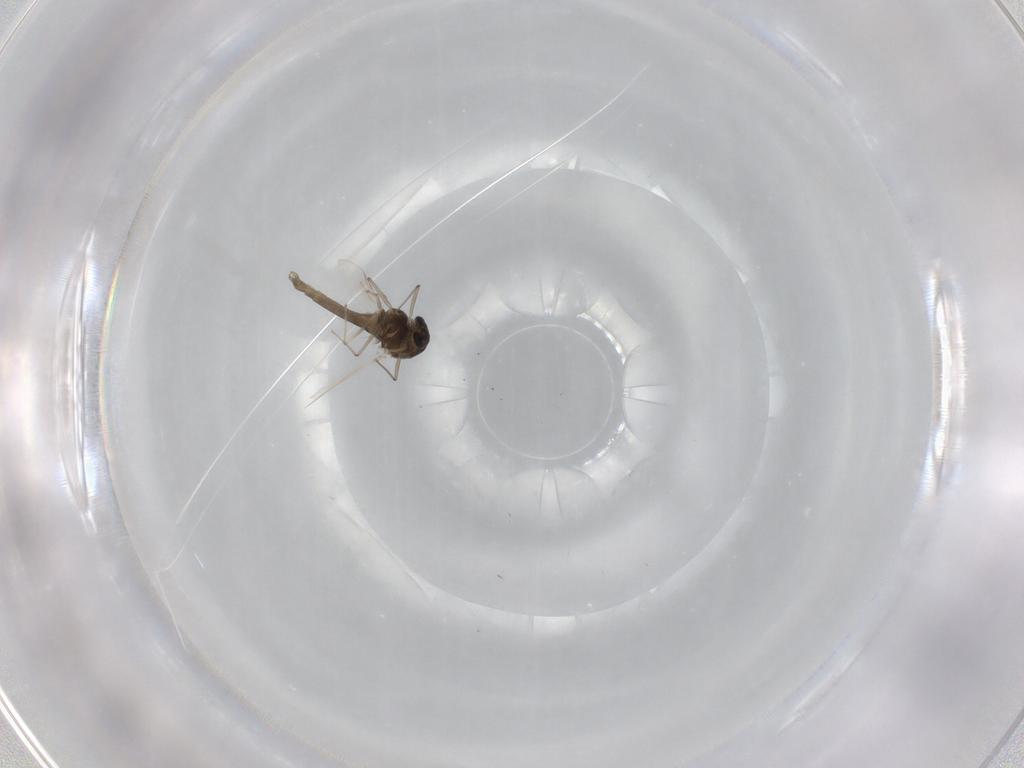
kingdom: Animalia
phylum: Arthropoda
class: Insecta
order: Diptera
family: Chironomidae
